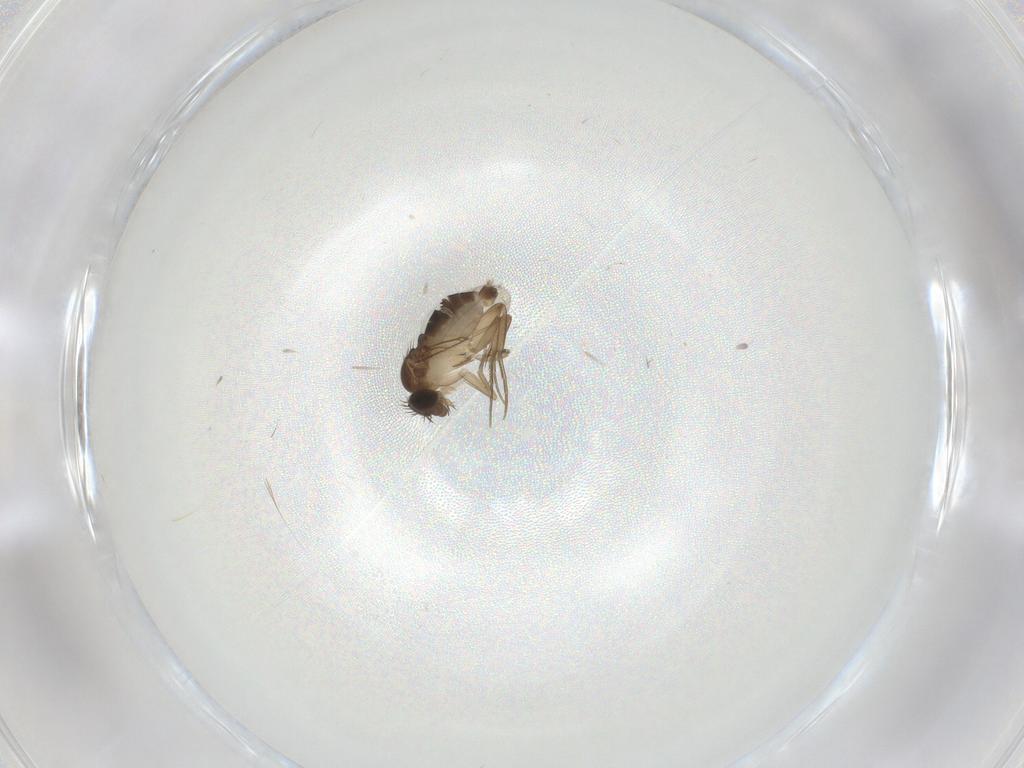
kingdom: Animalia
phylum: Arthropoda
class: Insecta
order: Diptera
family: Phoridae
